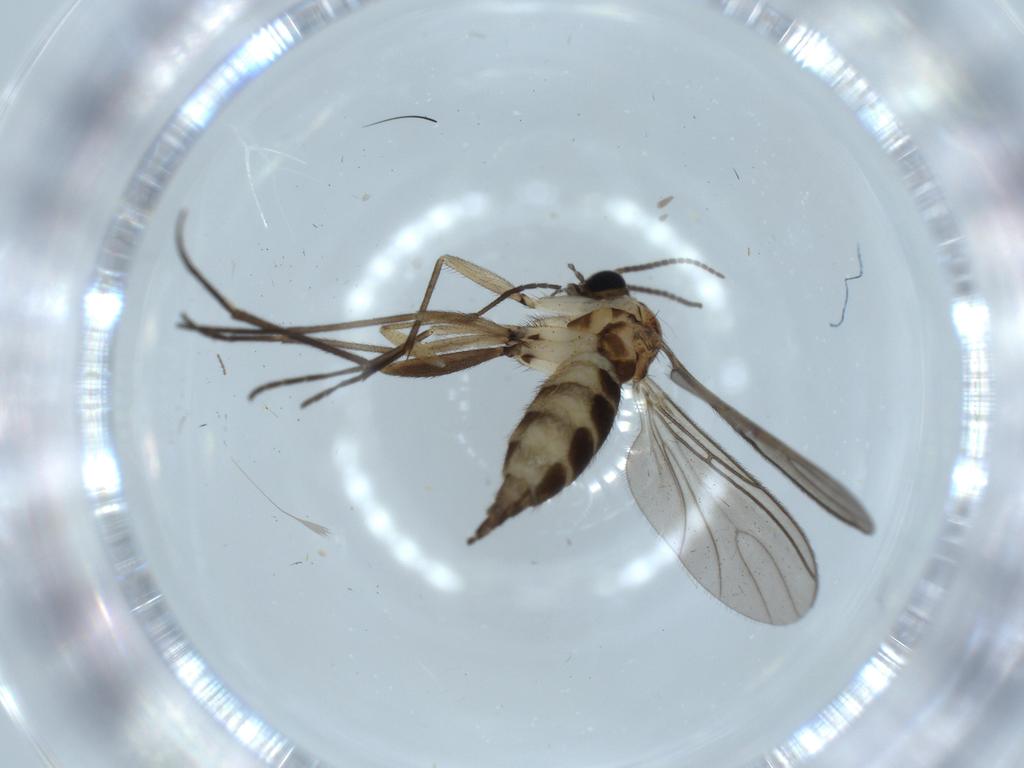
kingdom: Animalia
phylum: Arthropoda
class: Insecta
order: Diptera
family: Sciaridae
